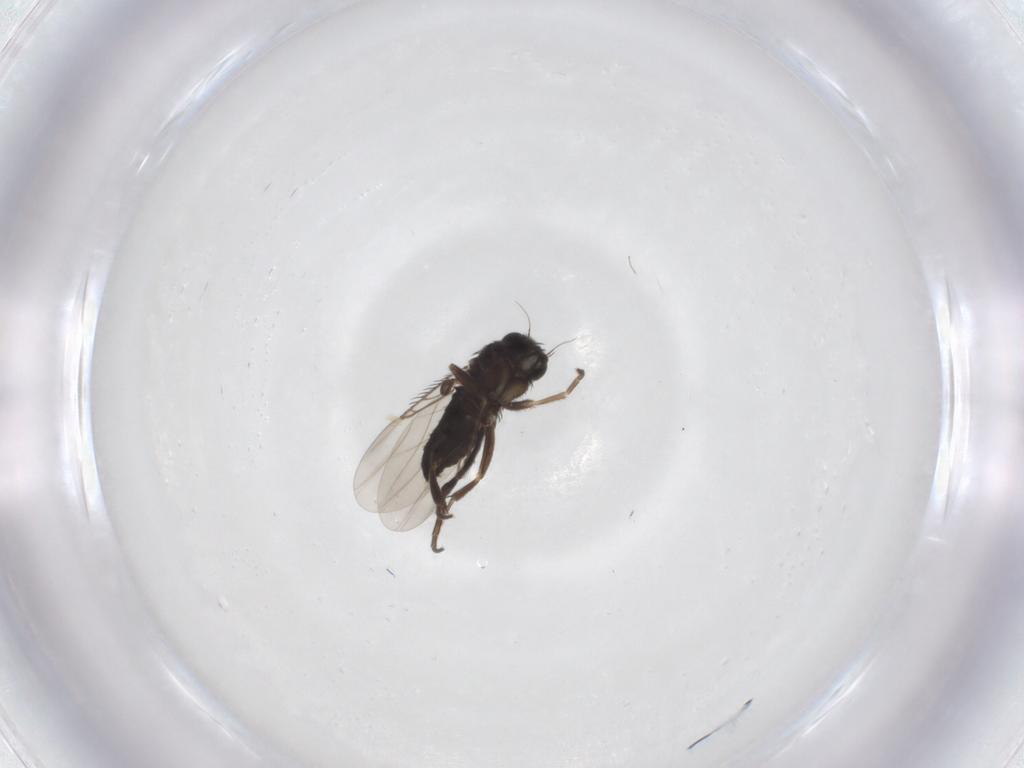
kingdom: Animalia
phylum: Arthropoda
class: Insecta
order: Diptera
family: Phoridae
